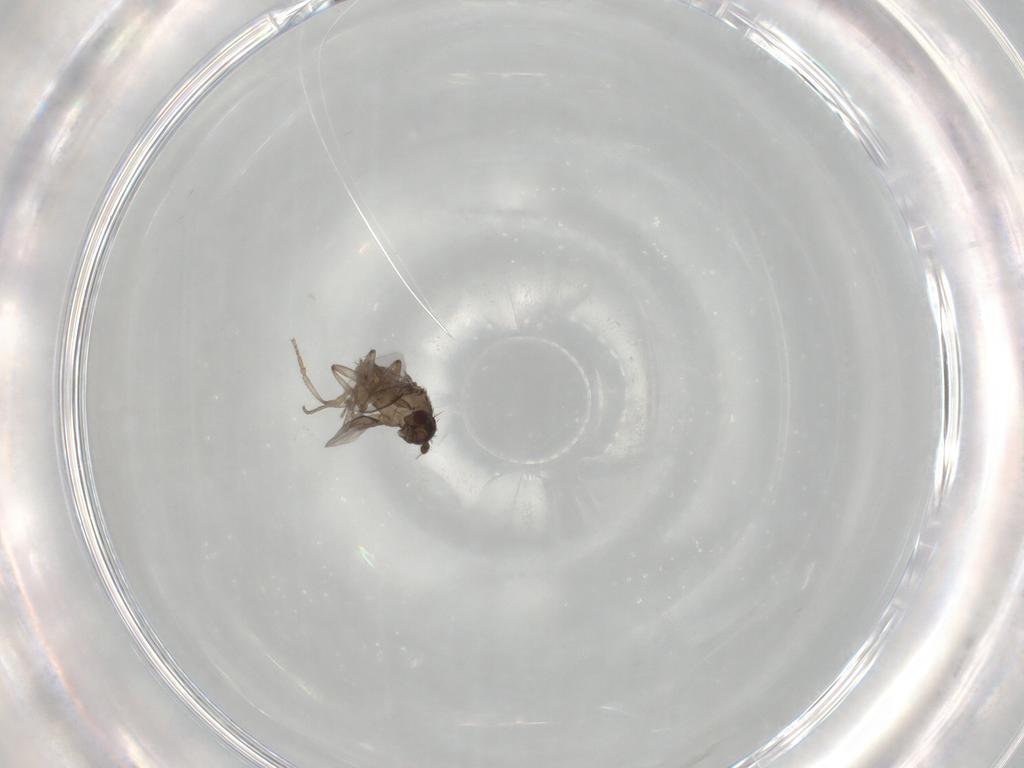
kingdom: Animalia
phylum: Arthropoda
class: Insecta
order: Diptera
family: Phoridae
